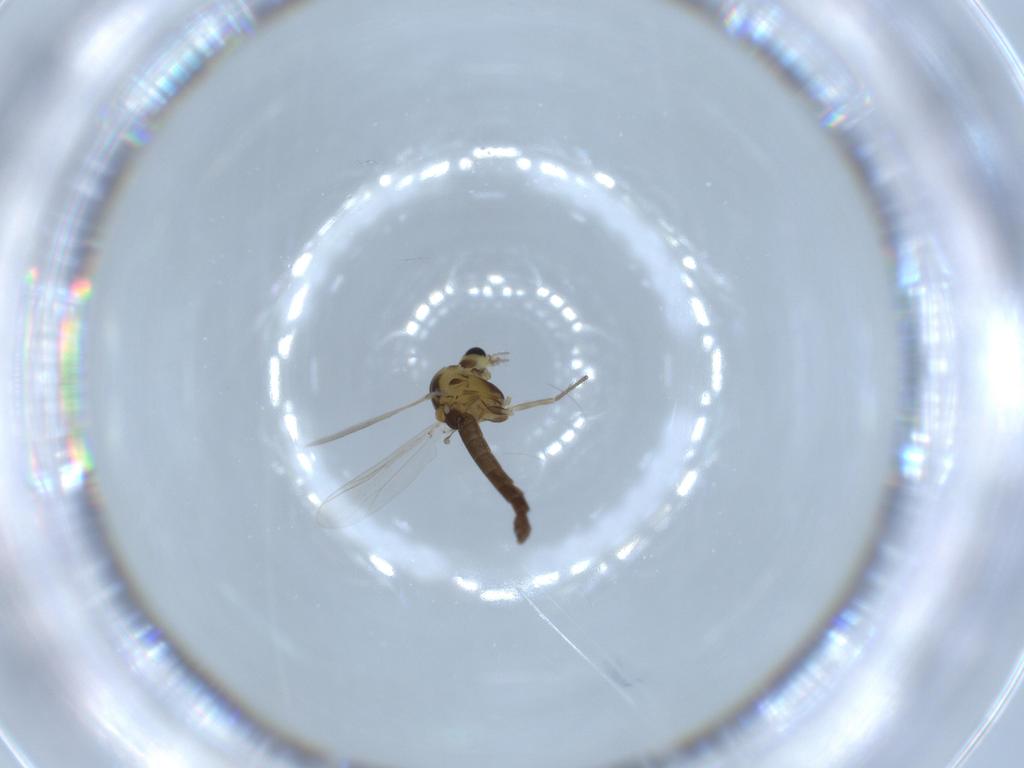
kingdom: Animalia
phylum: Arthropoda
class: Insecta
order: Diptera
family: Chironomidae
